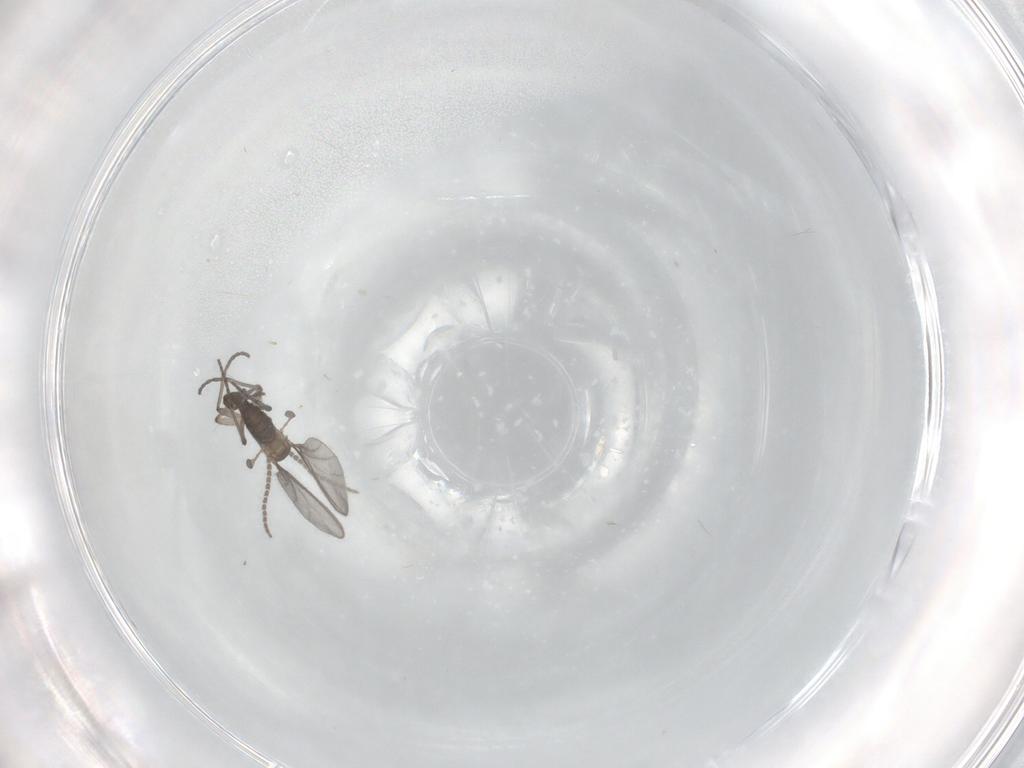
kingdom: Animalia
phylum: Arthropoda
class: Insecta
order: Diptera
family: Sciaridae
